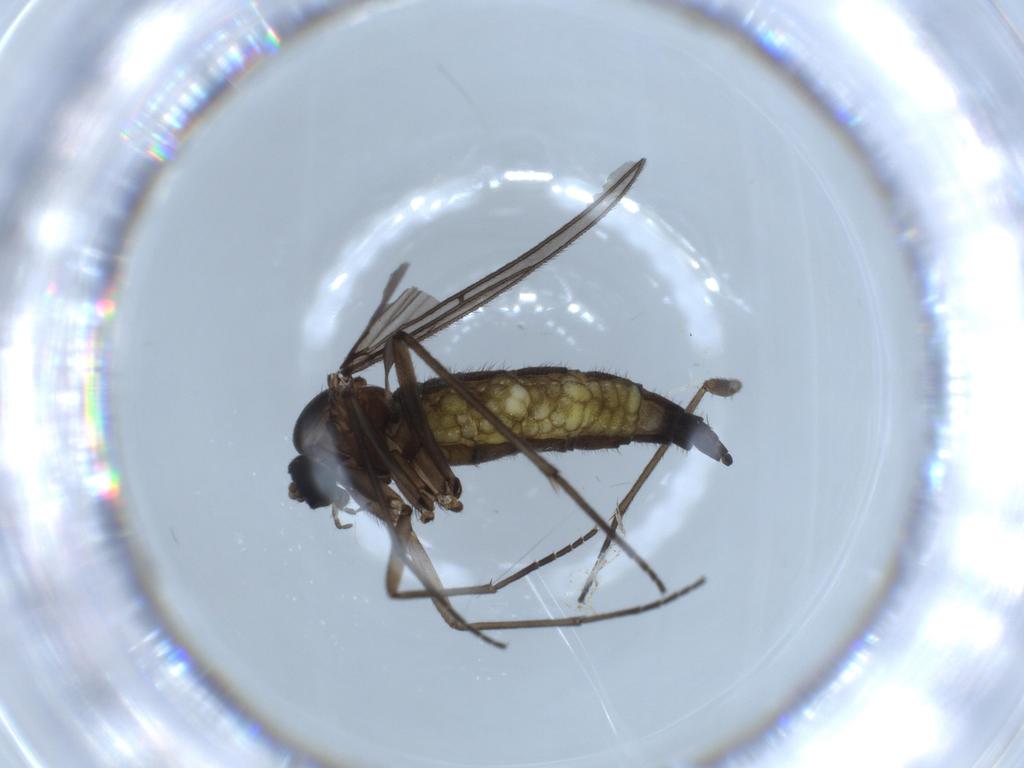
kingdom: Animalia
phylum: Arthropoda
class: Insecta
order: Diptera
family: Sciaridae
